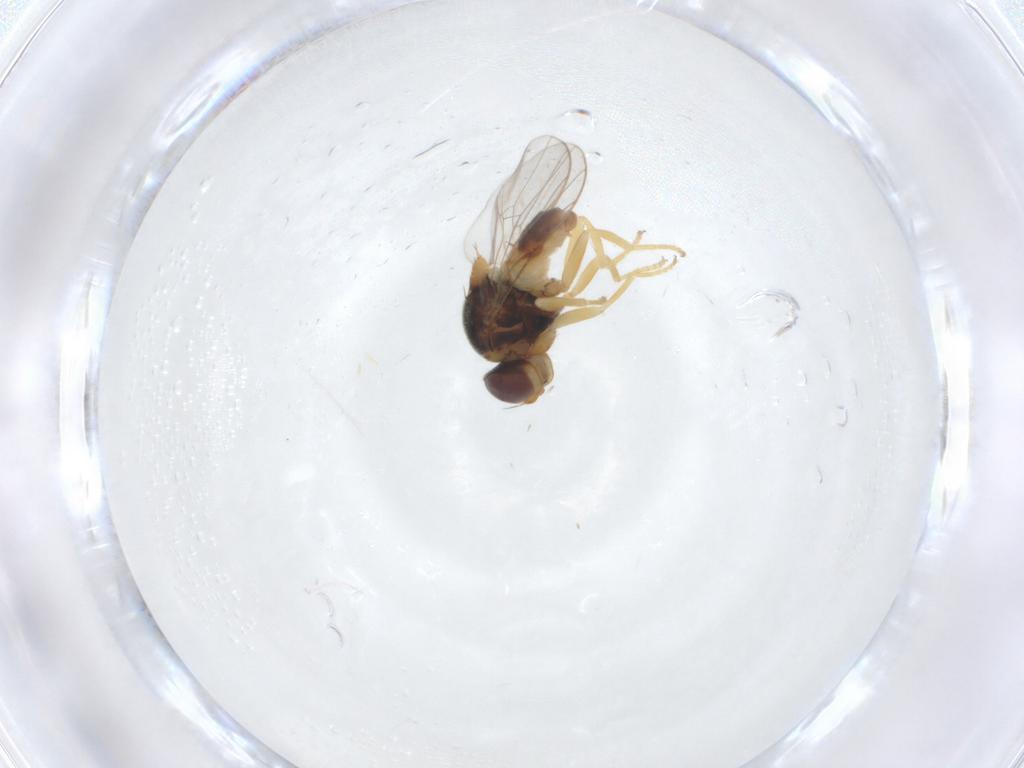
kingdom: Animalia
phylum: Arthropoda
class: Insecta
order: Diptera
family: Chloropidae
